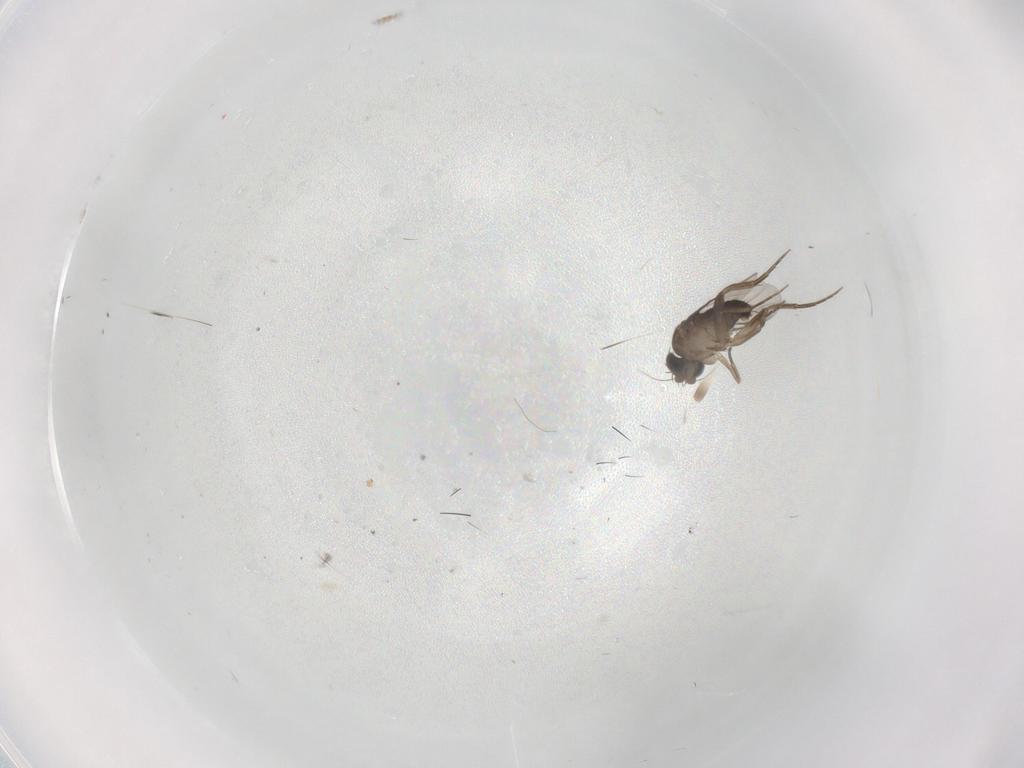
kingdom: Animalia
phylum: Arthropoda
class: Insecta
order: Diptera
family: Phoridae
